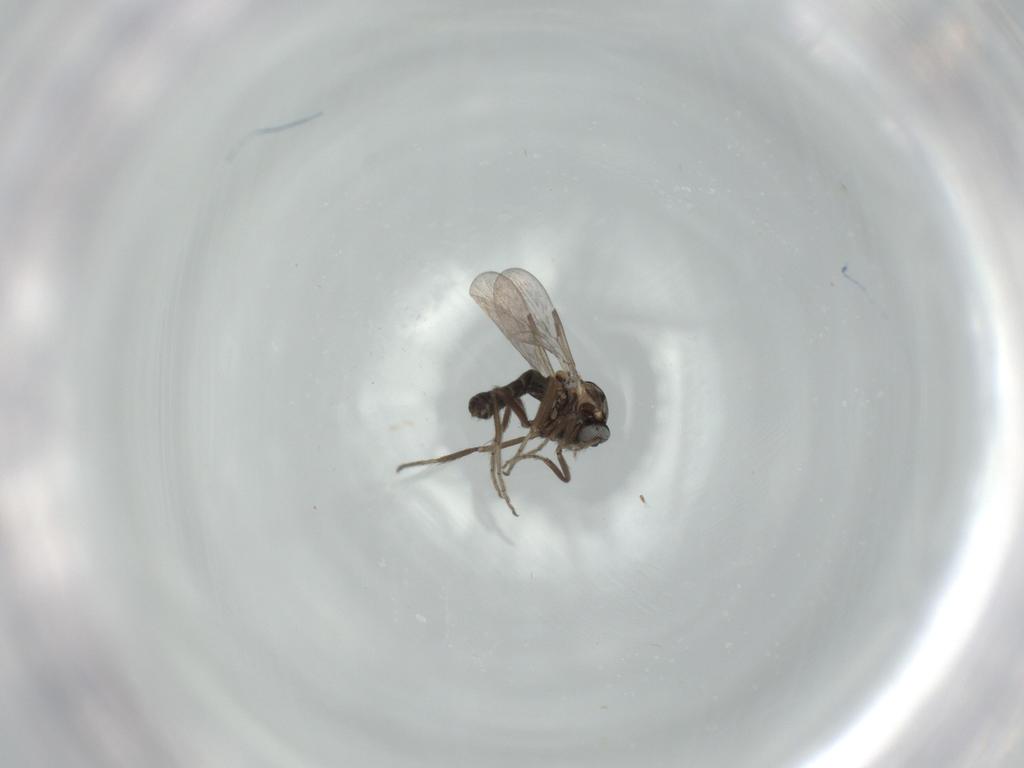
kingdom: Animalia
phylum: Arthropoda
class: Insecta
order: Diptera
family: Ceratopogonidae
